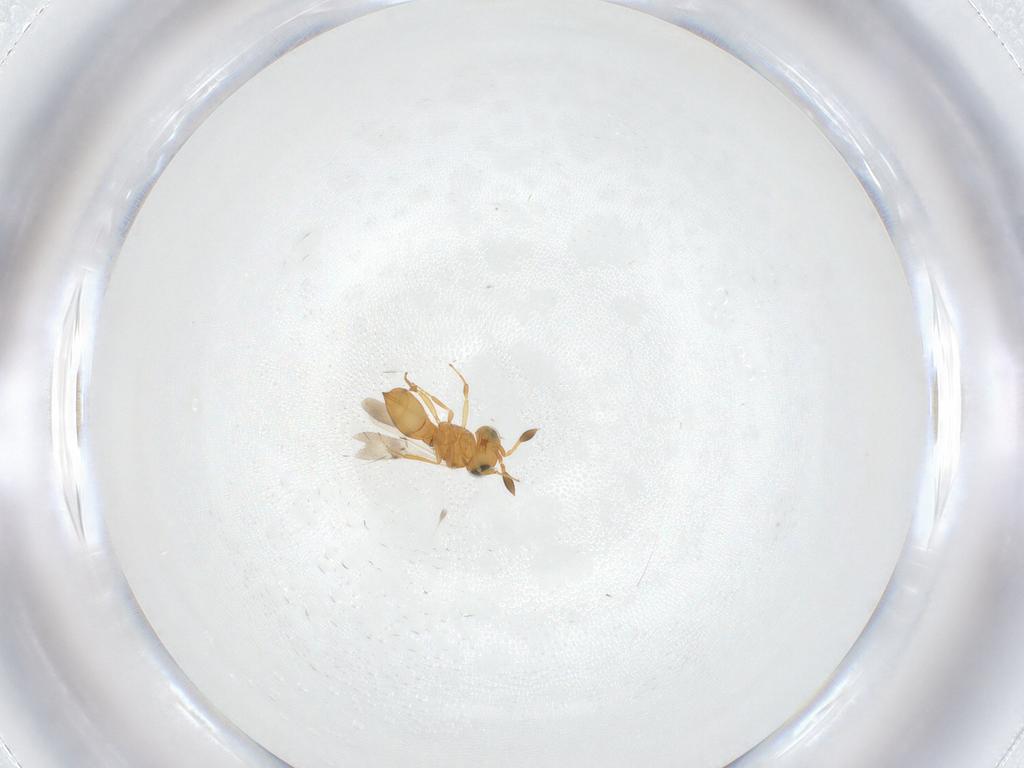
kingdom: Animalia
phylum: Arthropoda
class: Insecta
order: Hymenoptera
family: Scelionidae
